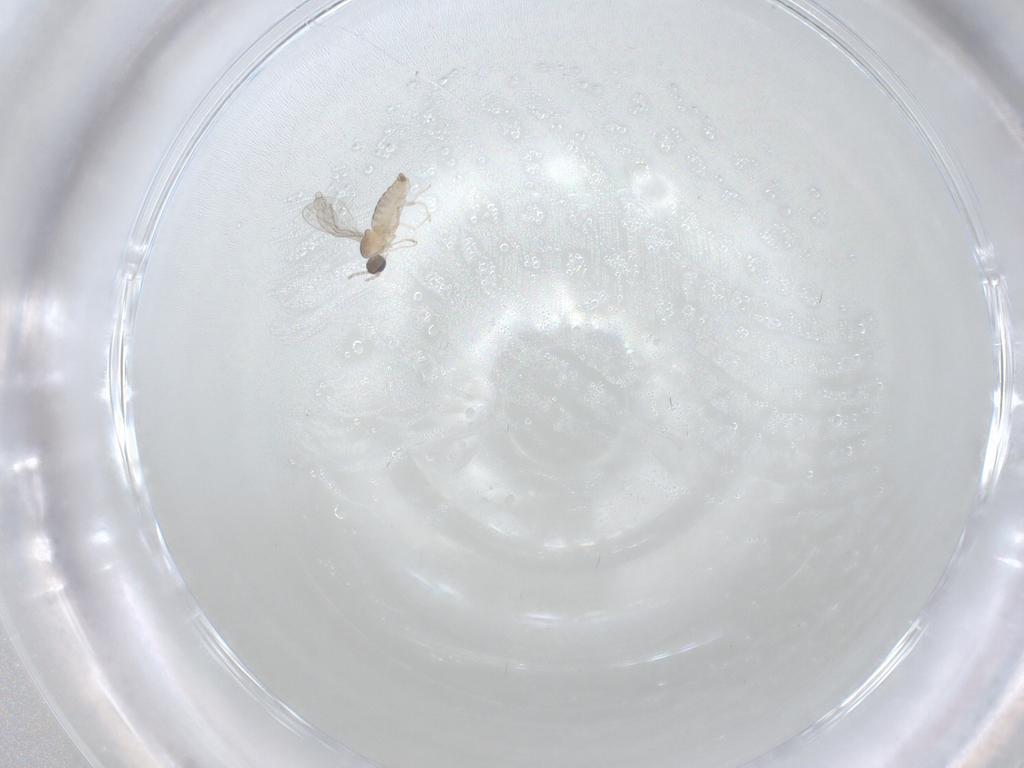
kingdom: Animalia
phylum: Arthropoda
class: Insecta
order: Diptera
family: Cecidomyiidae
